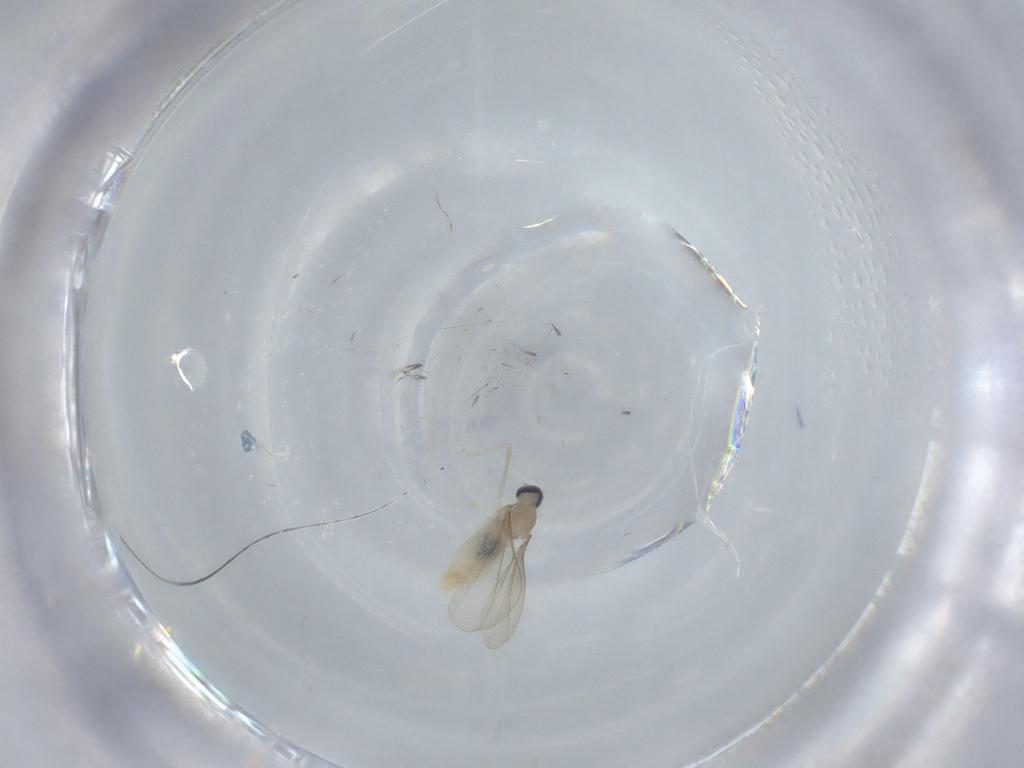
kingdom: Animalia
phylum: Arthropoda
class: Insecta
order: Diptera
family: Cecidomyiidae
